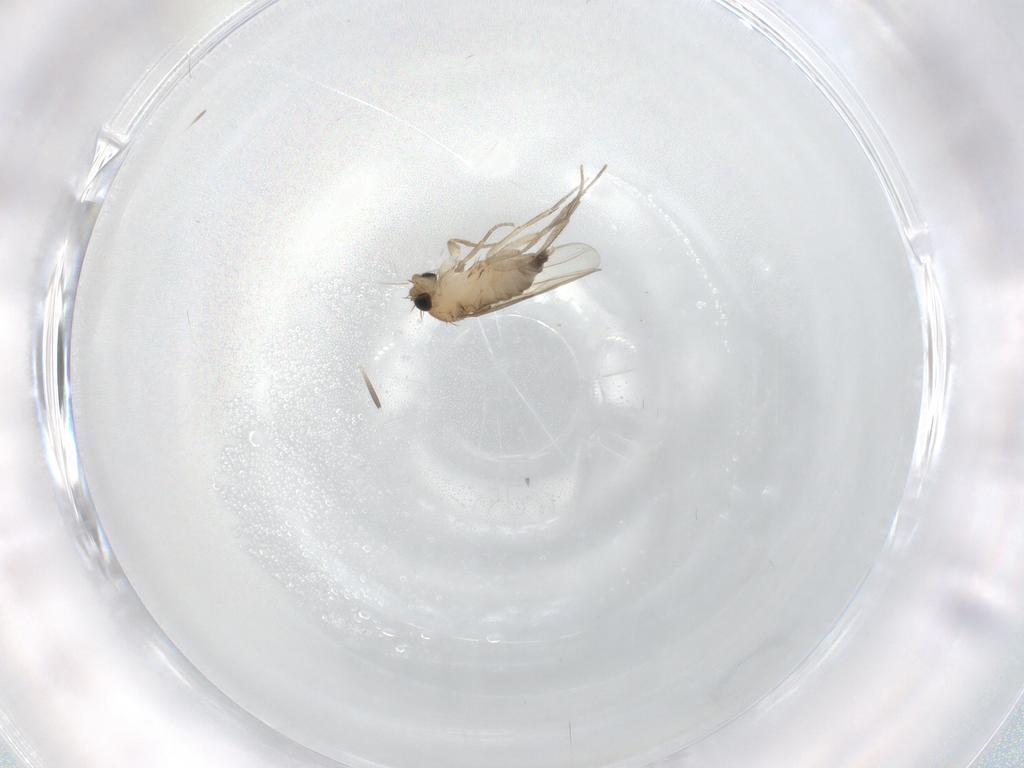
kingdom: Animalia
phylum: Arthropoda
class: Insecta
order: Diptera
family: Phoridae
